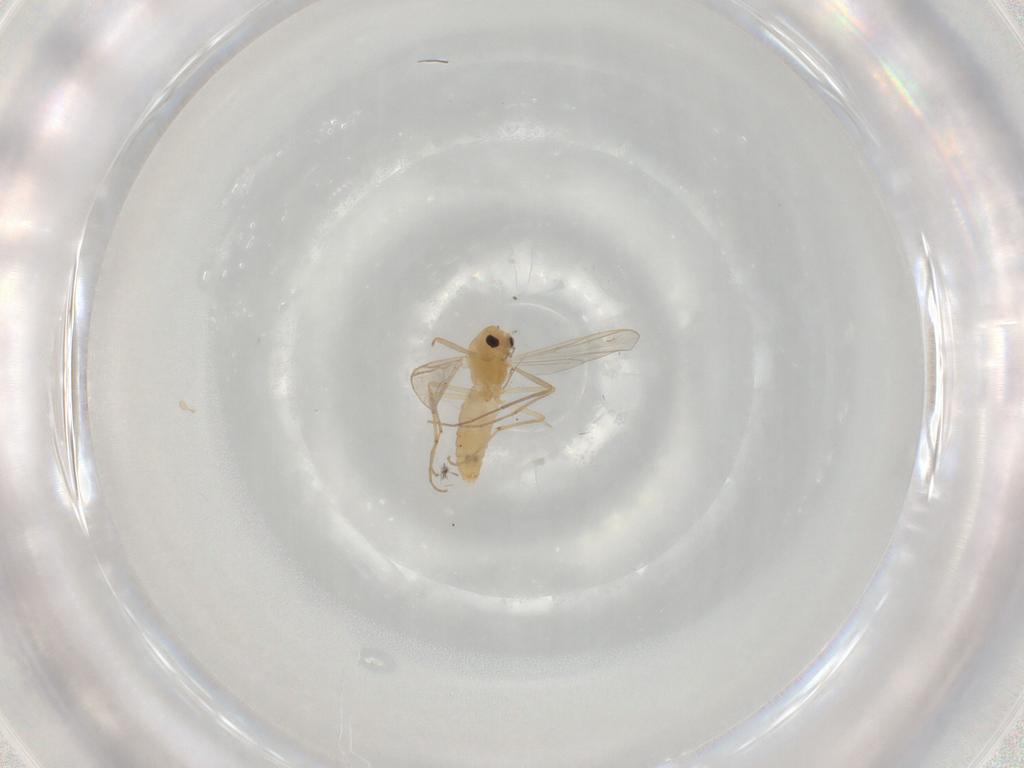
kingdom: Animalia
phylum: Arthropoda
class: Insecta
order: Diptera
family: Chironomidae
